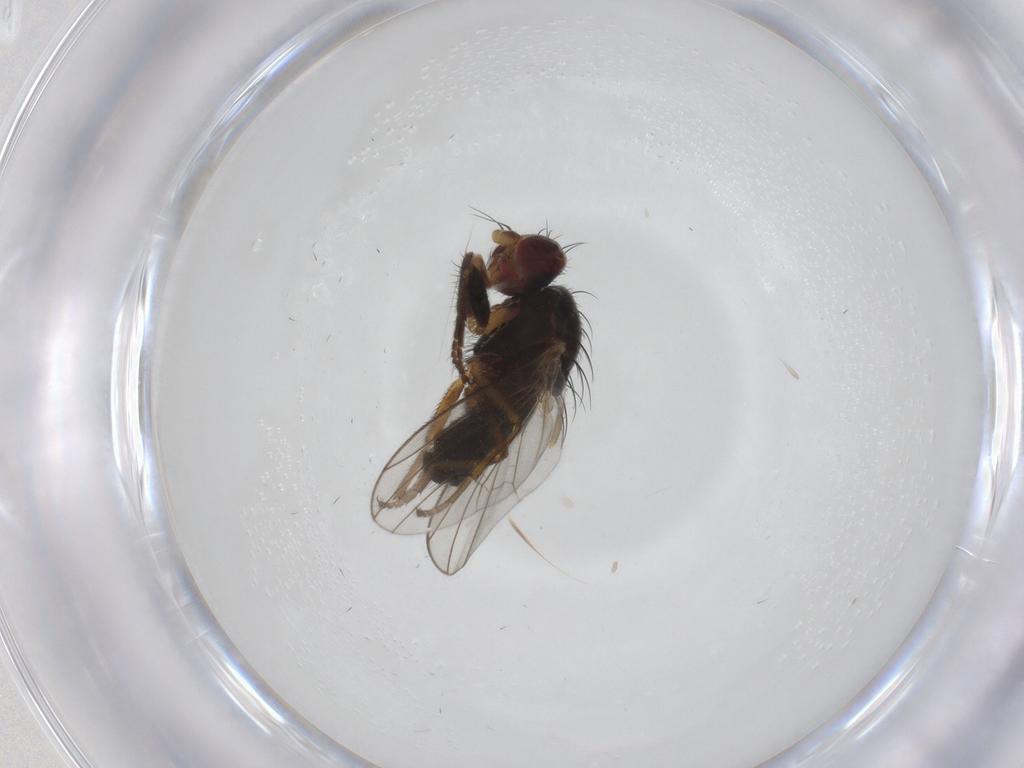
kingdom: Animalia
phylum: Arthropoda
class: Insecta
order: Diptera
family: Heleomyzidae
